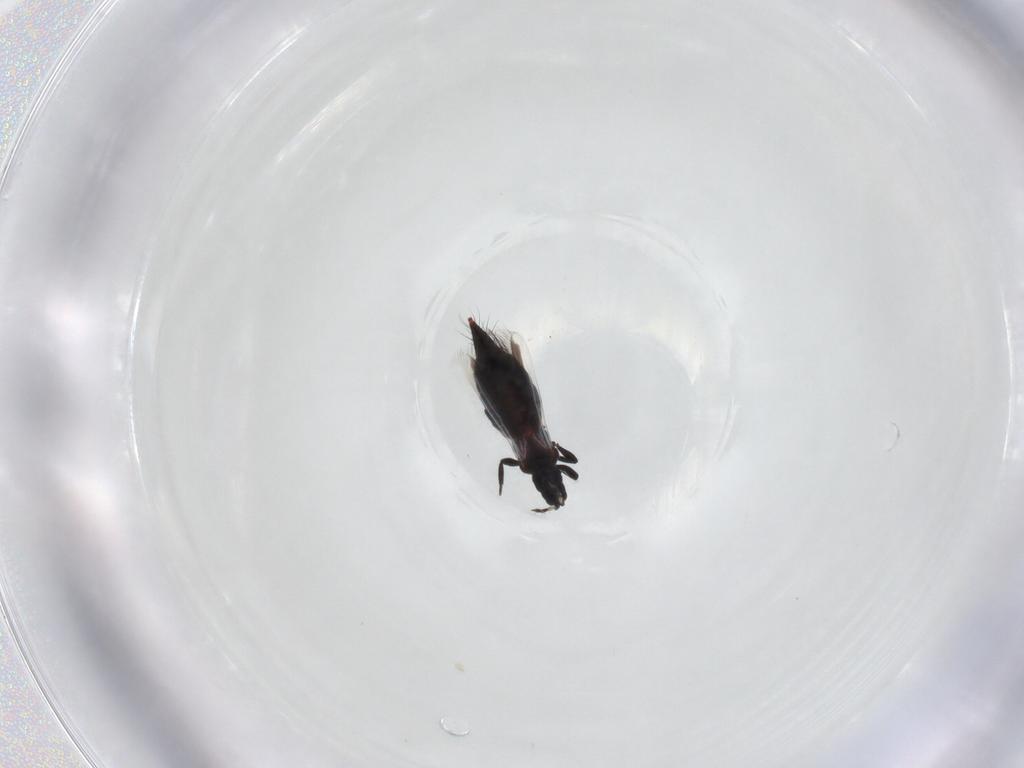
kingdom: Animalia
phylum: Arthropoda
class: Insecta
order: Thysanoptera
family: Aeolothripidae
